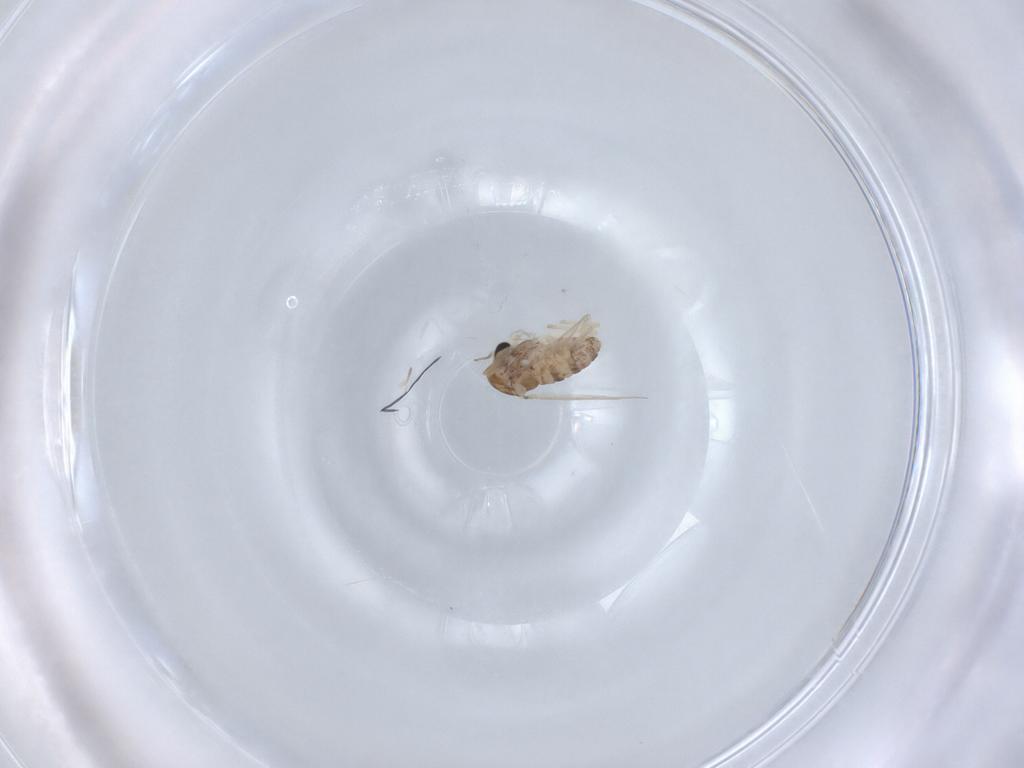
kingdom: Animalia
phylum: Arthropoda
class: Insecta
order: Diptera
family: Chironomidae
